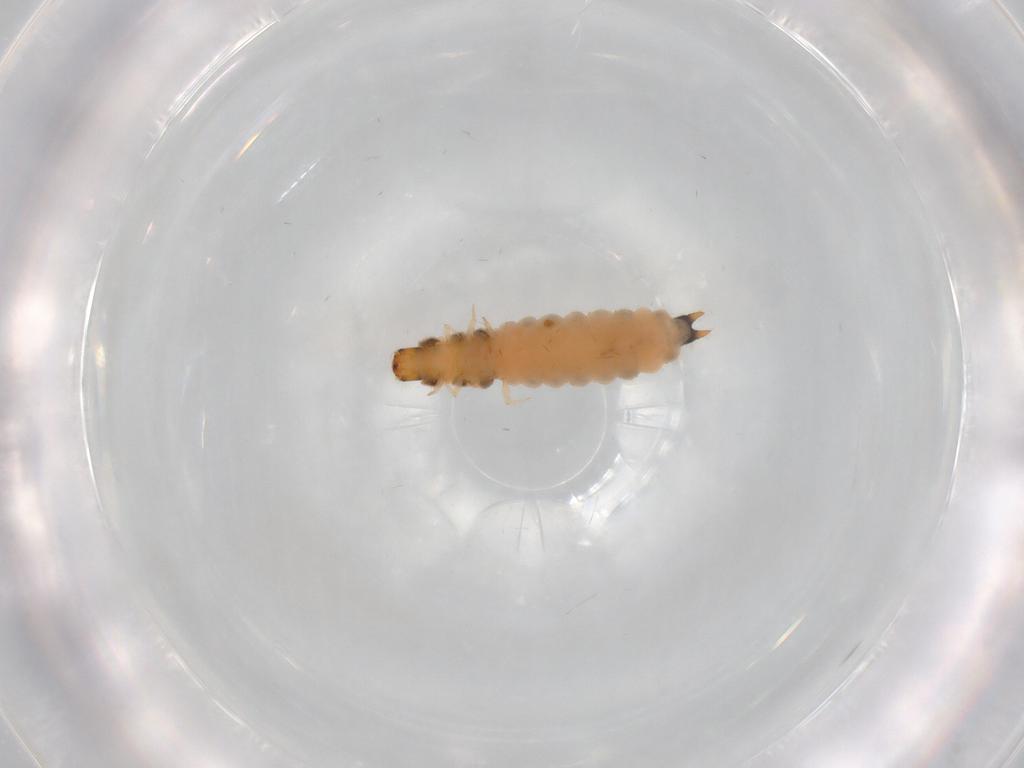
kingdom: Animalia
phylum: Arthropoda
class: Insecta
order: Coleoptera
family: Melyridae
